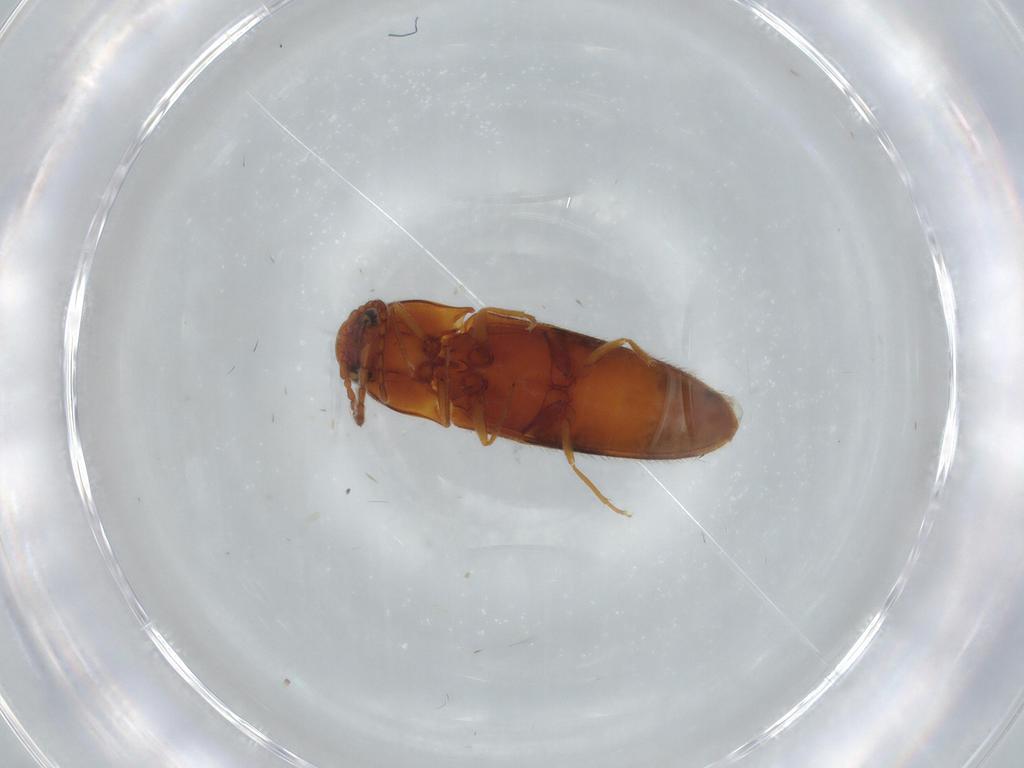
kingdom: Animalia
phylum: Arthropoda
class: Insecta
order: Coleoptera
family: Elateridae
